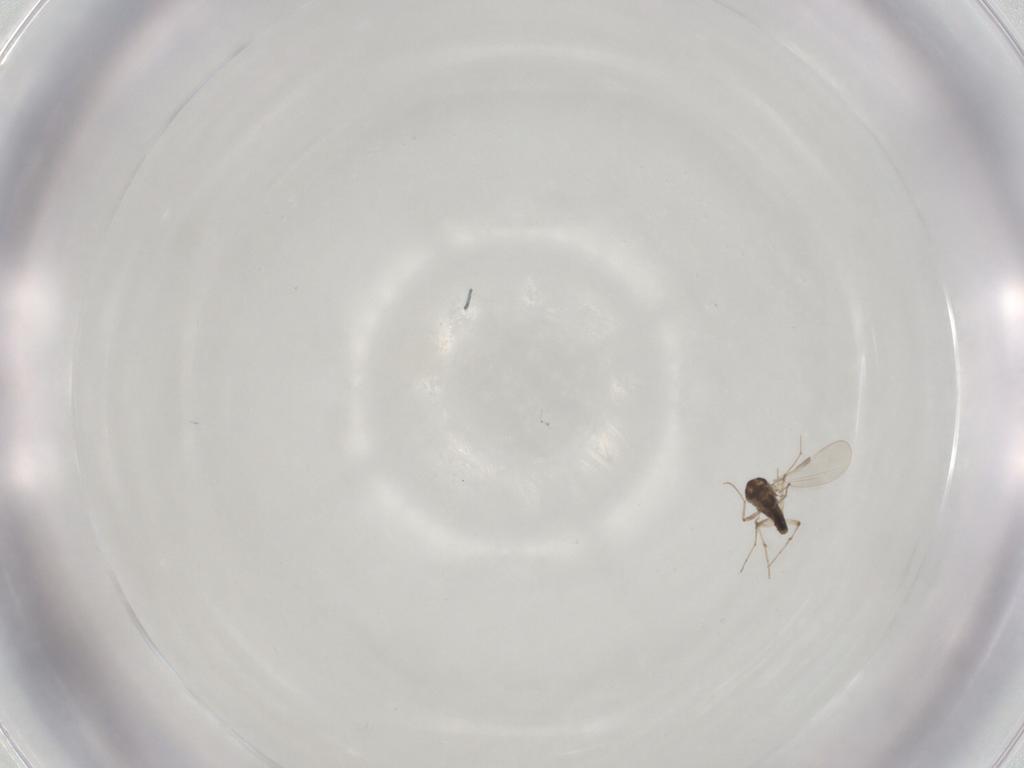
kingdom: Animalia
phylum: Arthropoda
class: Insecta
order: Diptera
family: Chironomidae
